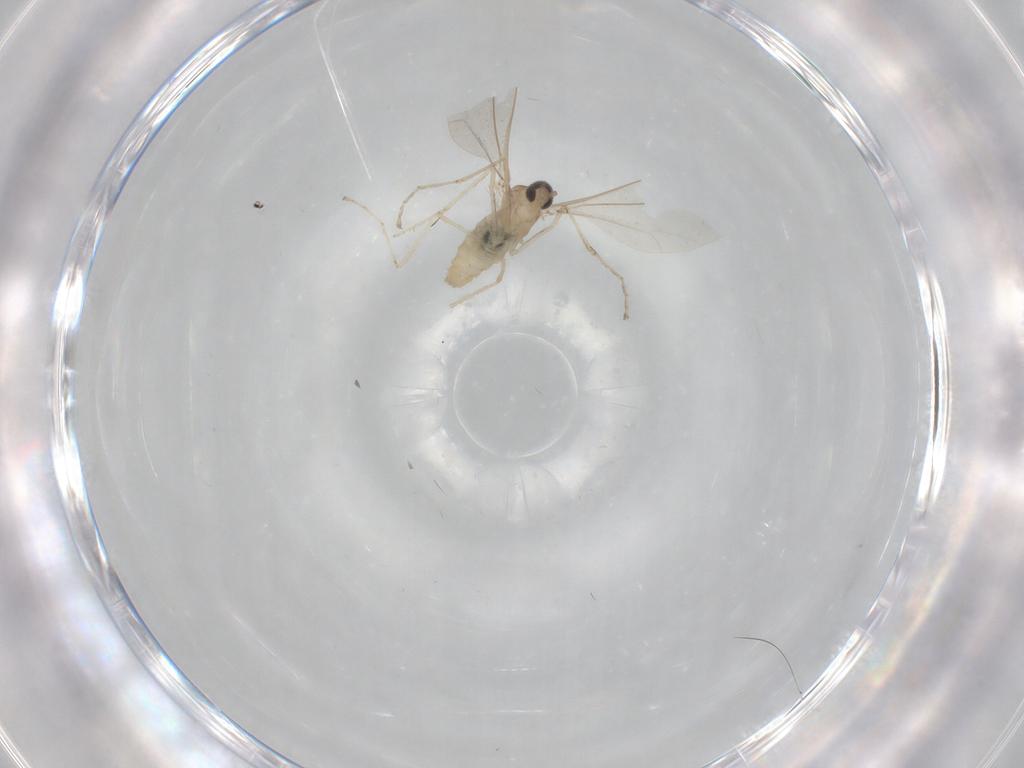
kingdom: Animalia
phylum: Arthropoda
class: Insecta
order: Diptera
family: Cecidomyiidae
